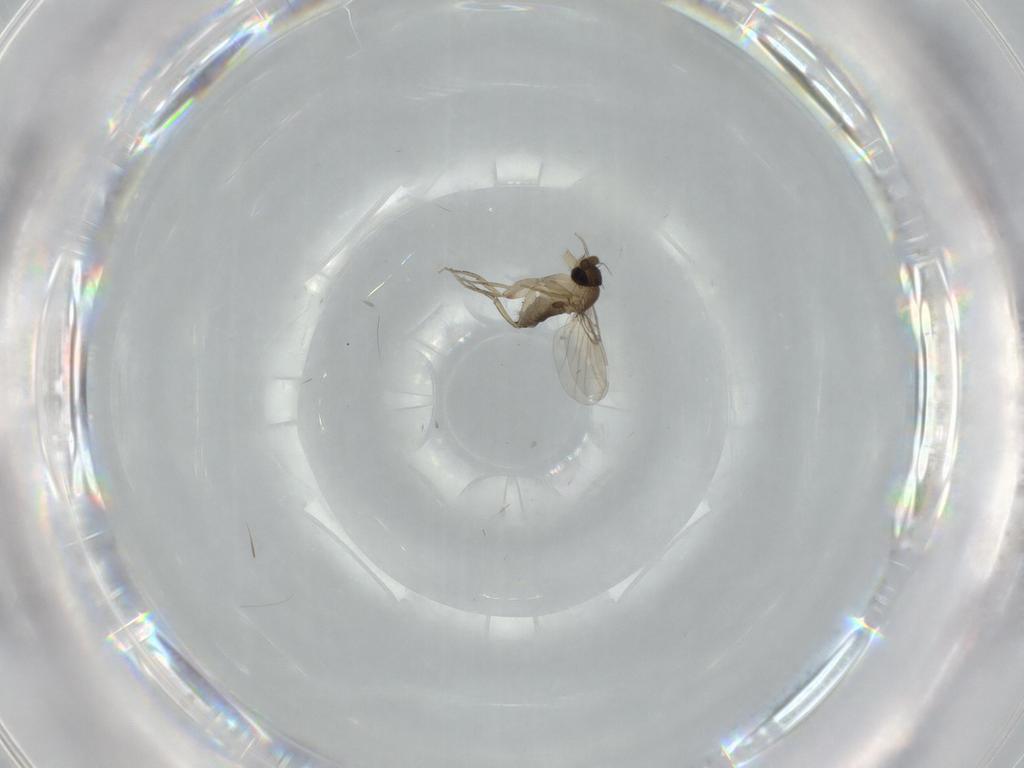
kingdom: Animalia
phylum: Arthropoda
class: Insecta
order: Diptera
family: Phoridae
